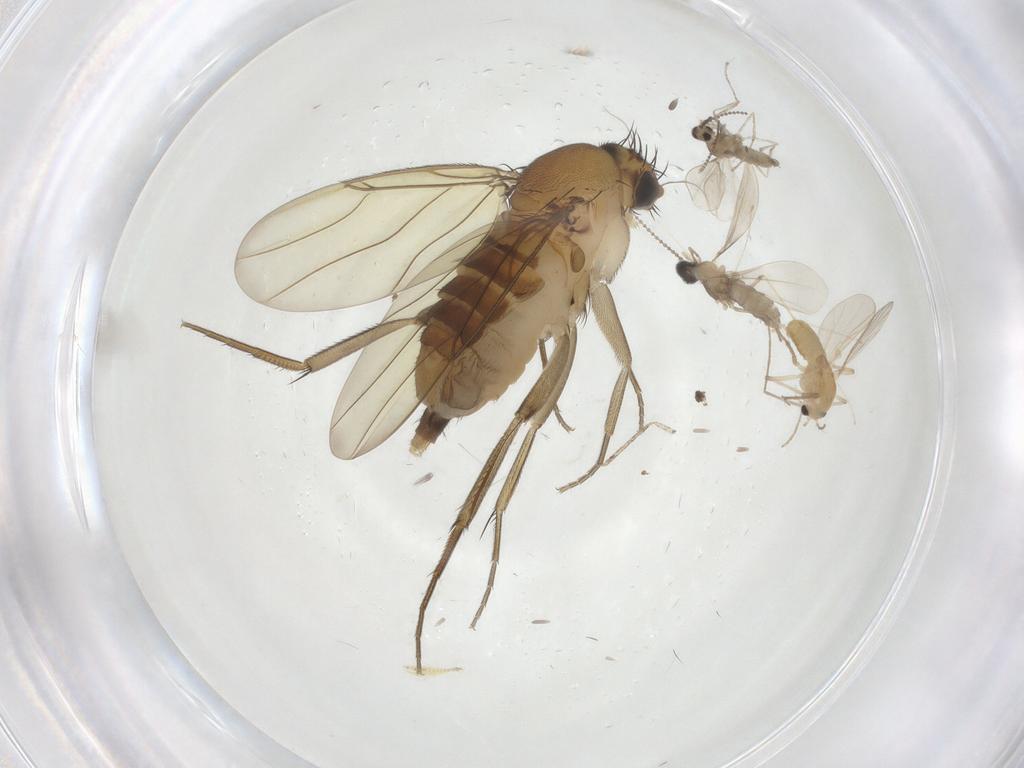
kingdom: Animalia
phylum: Arthropoda
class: Insecta
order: Diptera
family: Cecidomyiidae
